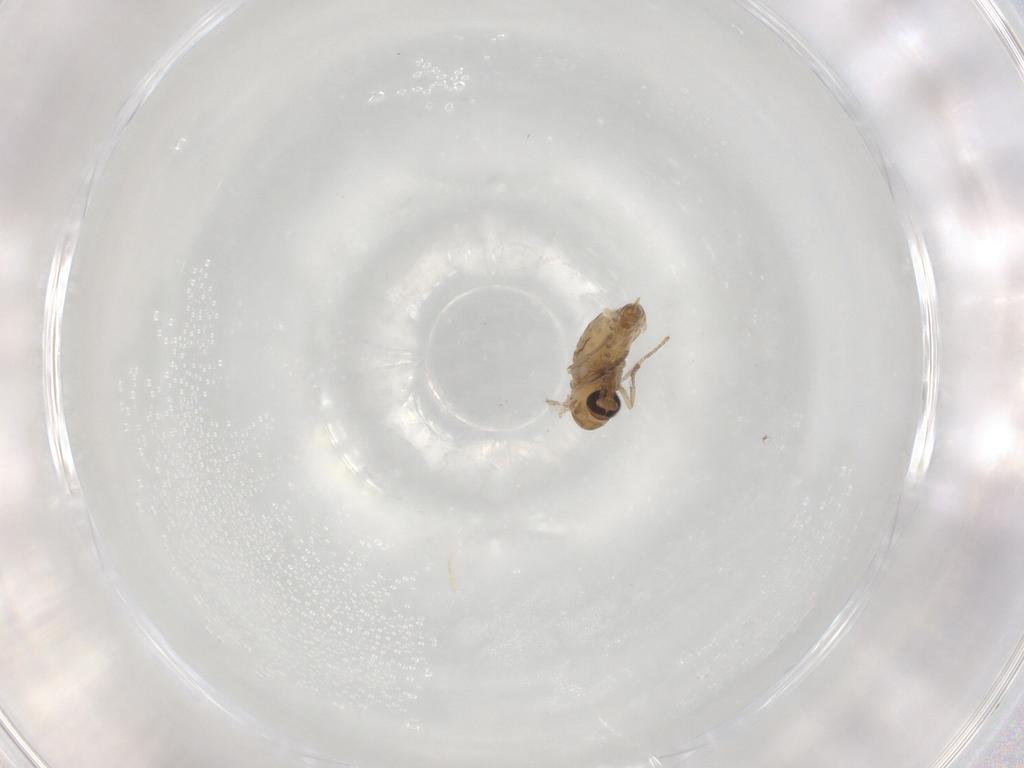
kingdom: Animalia
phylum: Arthropoda
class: Insecta
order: Diptera
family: Psychodidae
